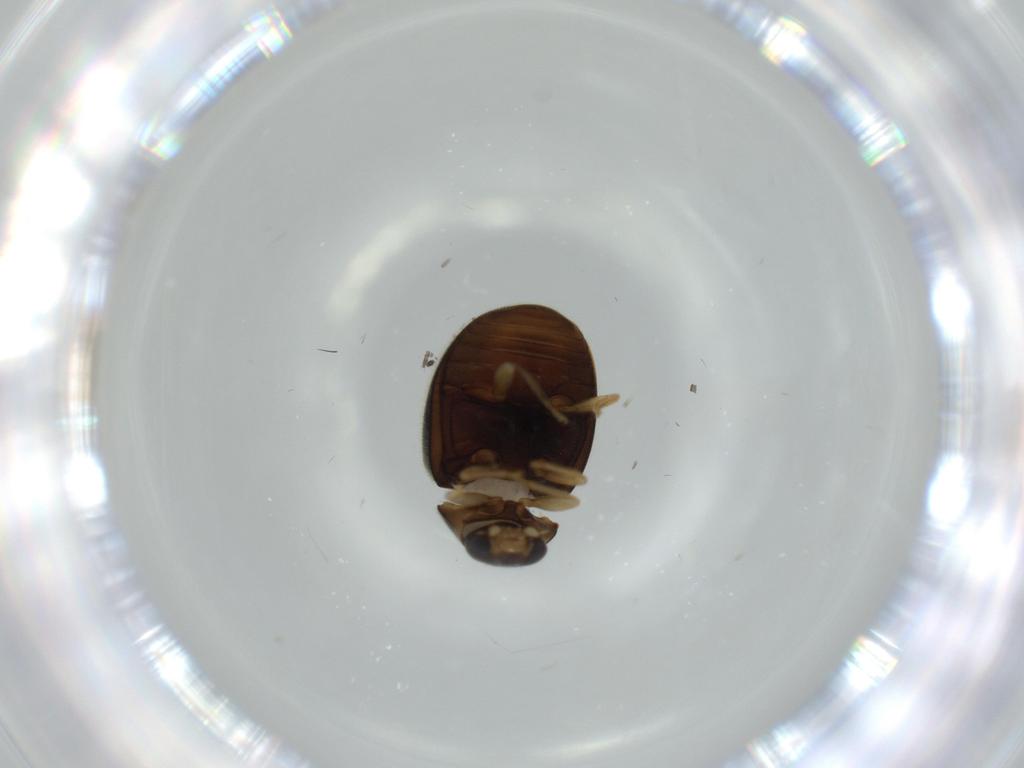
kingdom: Animalia
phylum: Arthropoda
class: Insecta
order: Coleoptera
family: Coccinellidae
